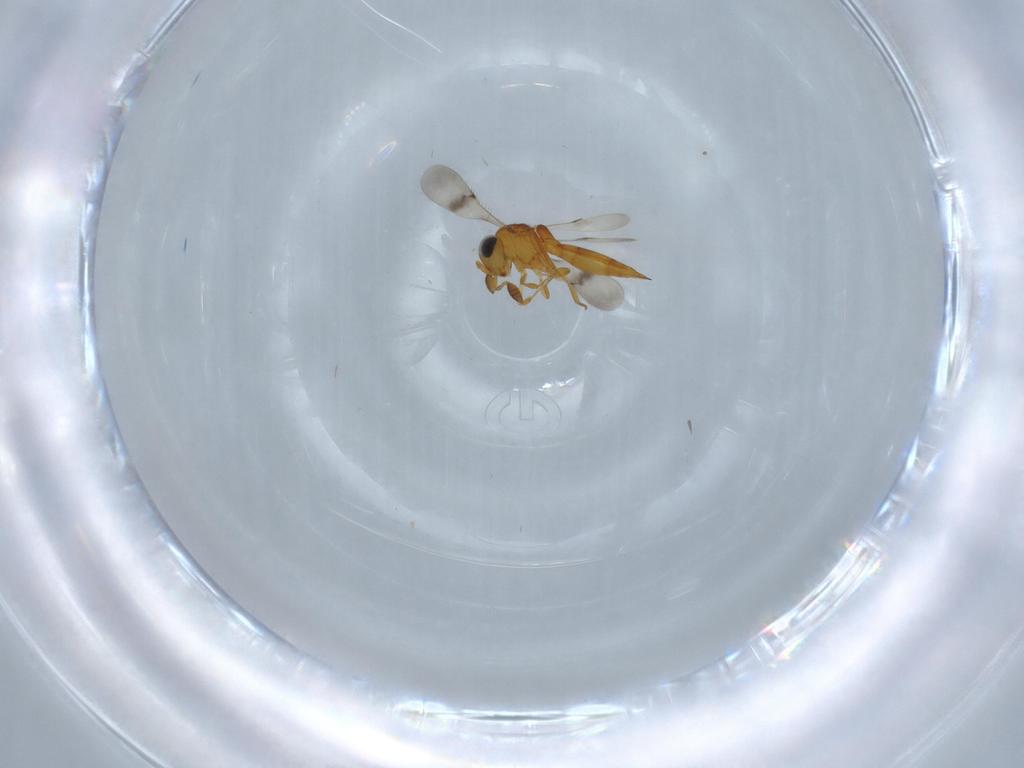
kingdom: Animalia
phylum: Arthropoda
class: Insecta
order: Hymenoptera
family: Scelionidae
